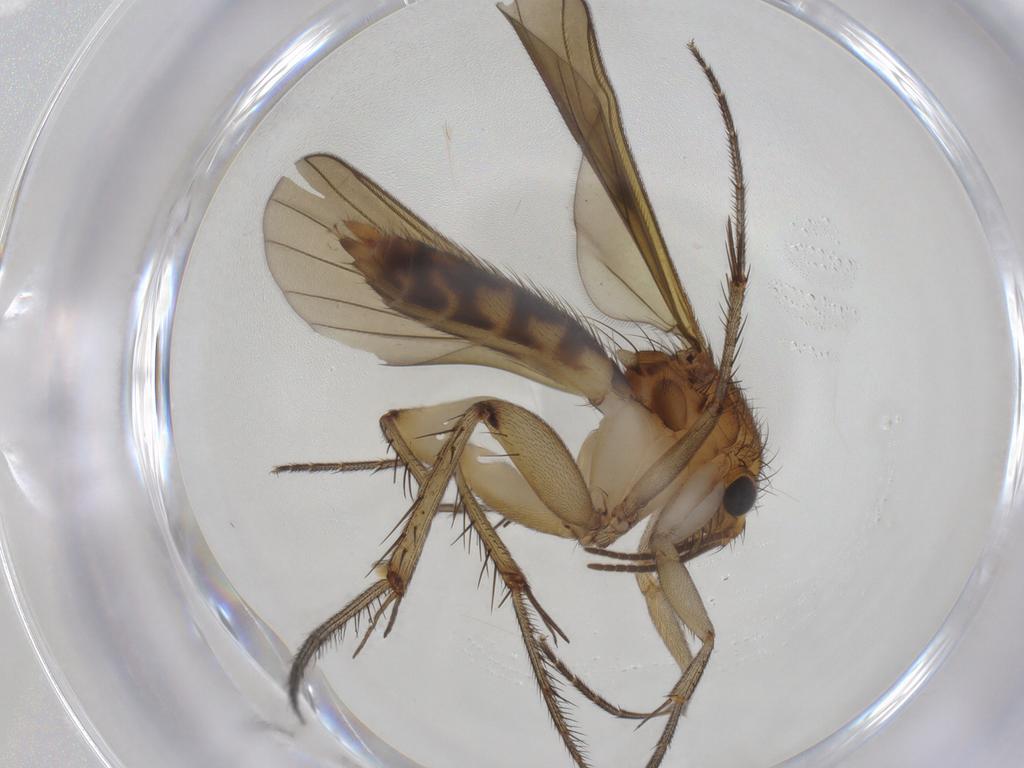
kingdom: Animalia
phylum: Arthropoda
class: Insecta
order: Diptera
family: Mycetophilidae
